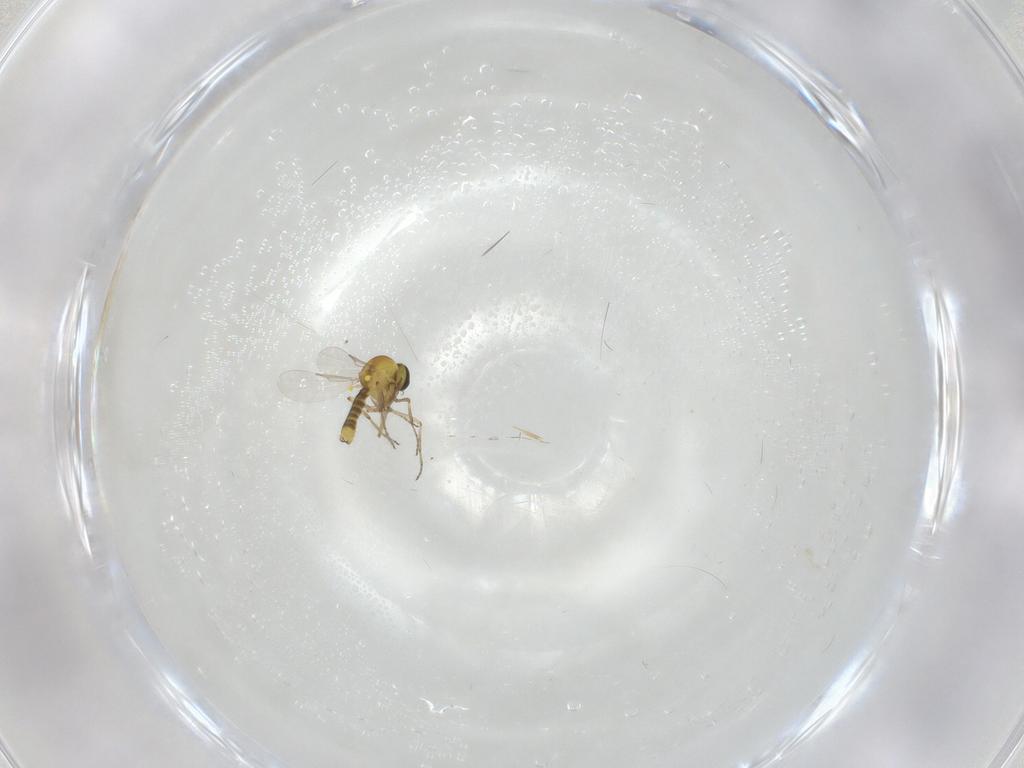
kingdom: Animalia
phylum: Arthropoda
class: Insecta
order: Diptera
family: Ceratopogonidae
